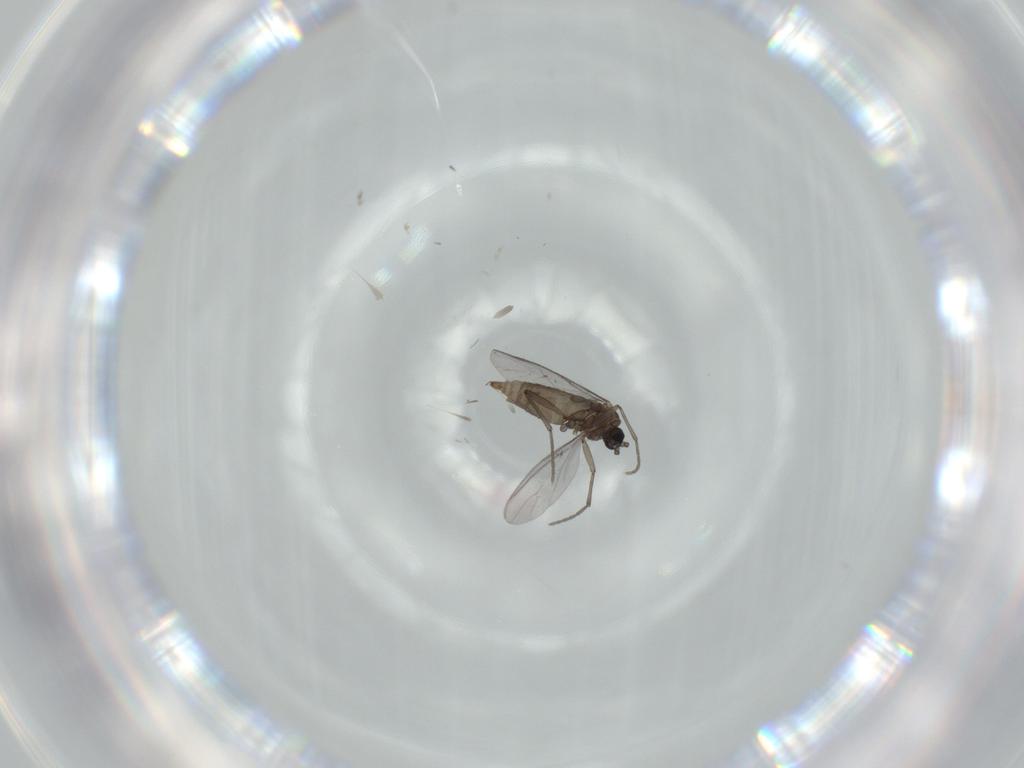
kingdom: Animalia
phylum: Arthropoda
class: Insecta
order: Diptera
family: Sciaridae
